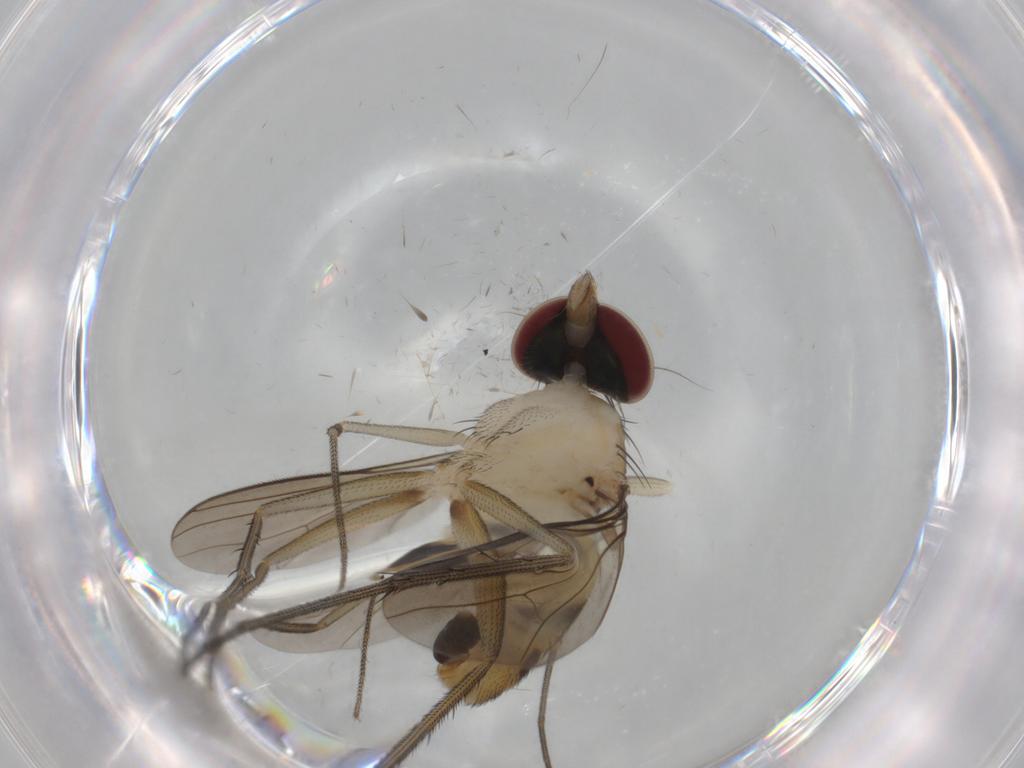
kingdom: Animalia
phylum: Arthropoda
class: Insecta
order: Diptera
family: Dolichopodidae
